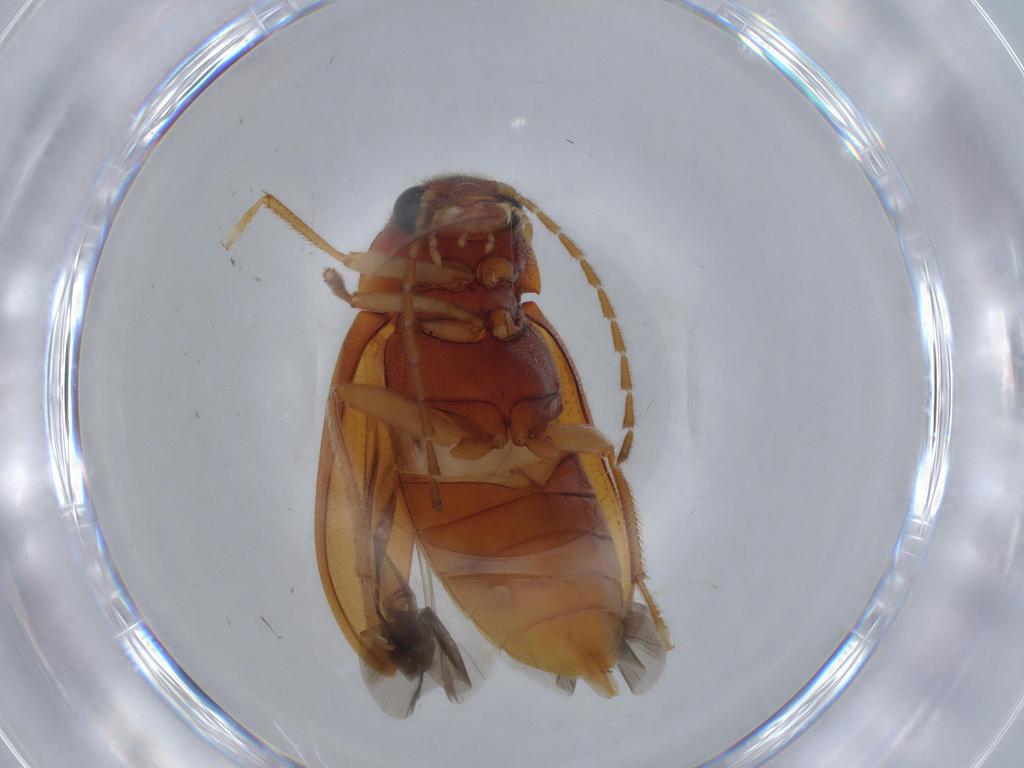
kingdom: Animalia
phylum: Arthropoda
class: Insecta
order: Coleoptera
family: Ptilodactylidae
